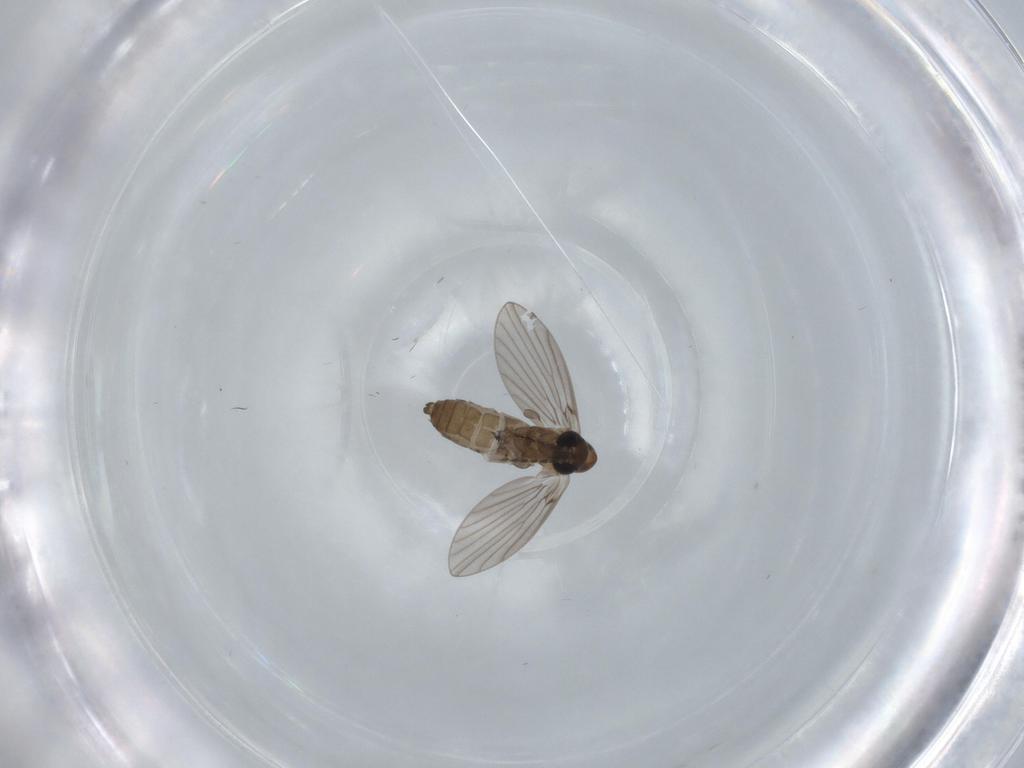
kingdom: Animalia
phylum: Arthropoda
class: Insecta
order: Diptera
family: Psychodidae
